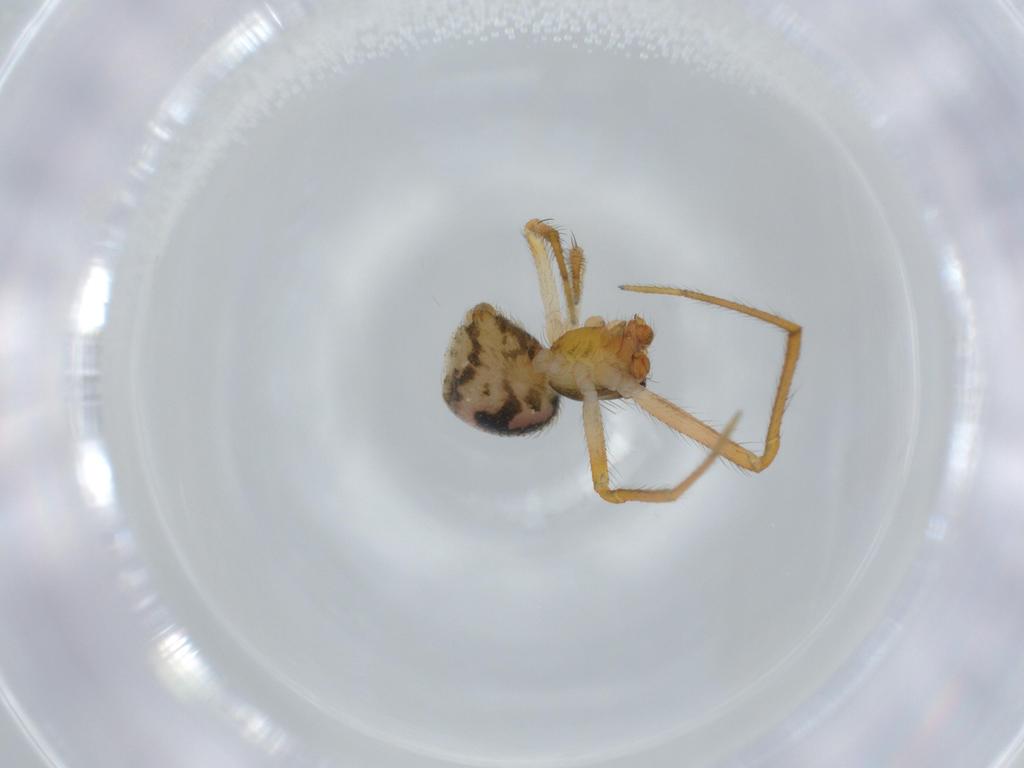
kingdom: Animalia
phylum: Arthropoda
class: Arachnida
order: Araneae
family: Theridiidae
